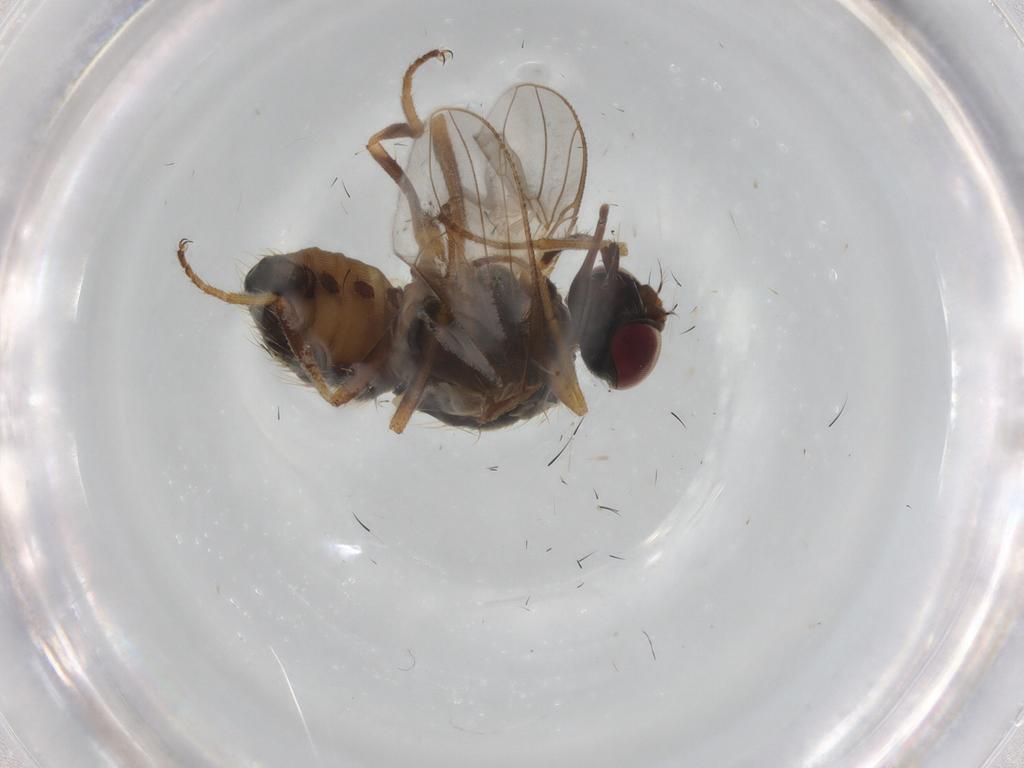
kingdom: Animalia
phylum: Arthropoda
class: Insecta
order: Diptera
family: Muscidae
